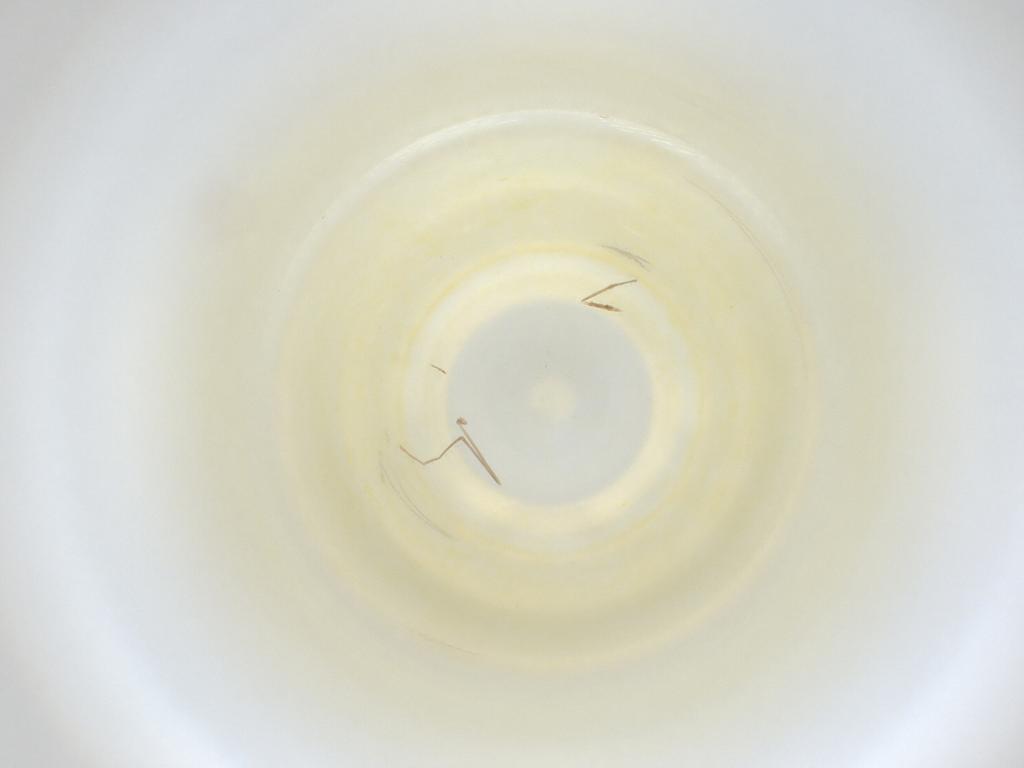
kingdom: Animalia
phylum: Arthropoda
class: Insecta
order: Diptera
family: Cecidomyiidae
